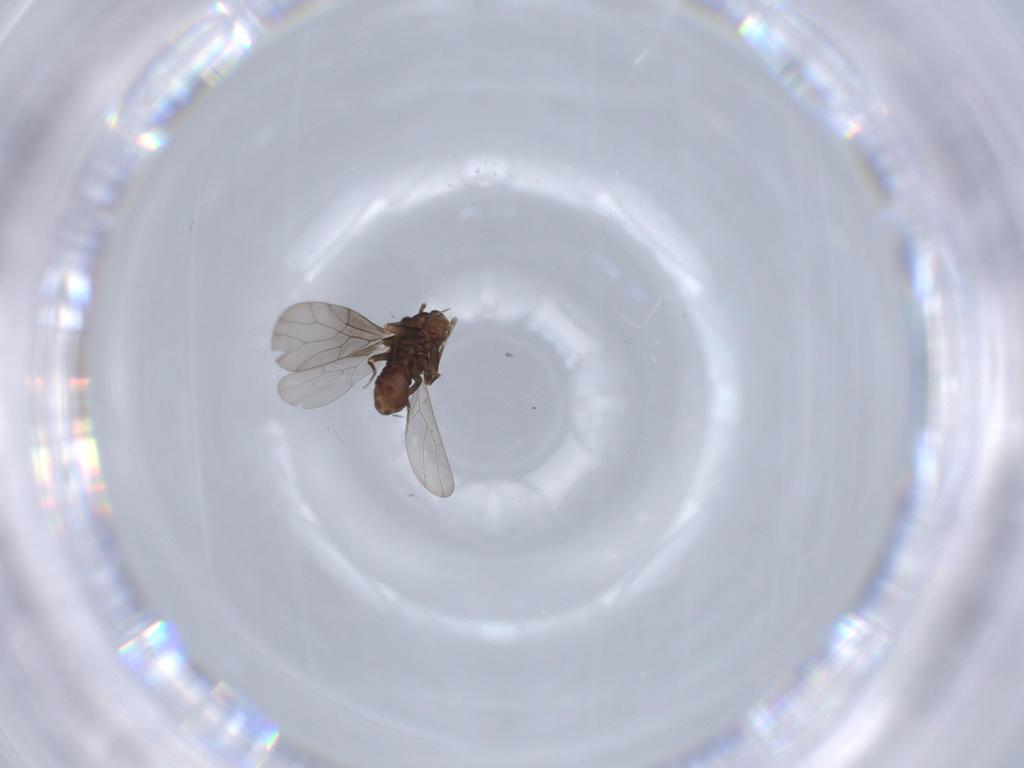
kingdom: Animalia
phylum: Arthropoda
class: Insecta
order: Psocodea
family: Lepidopsocidae
